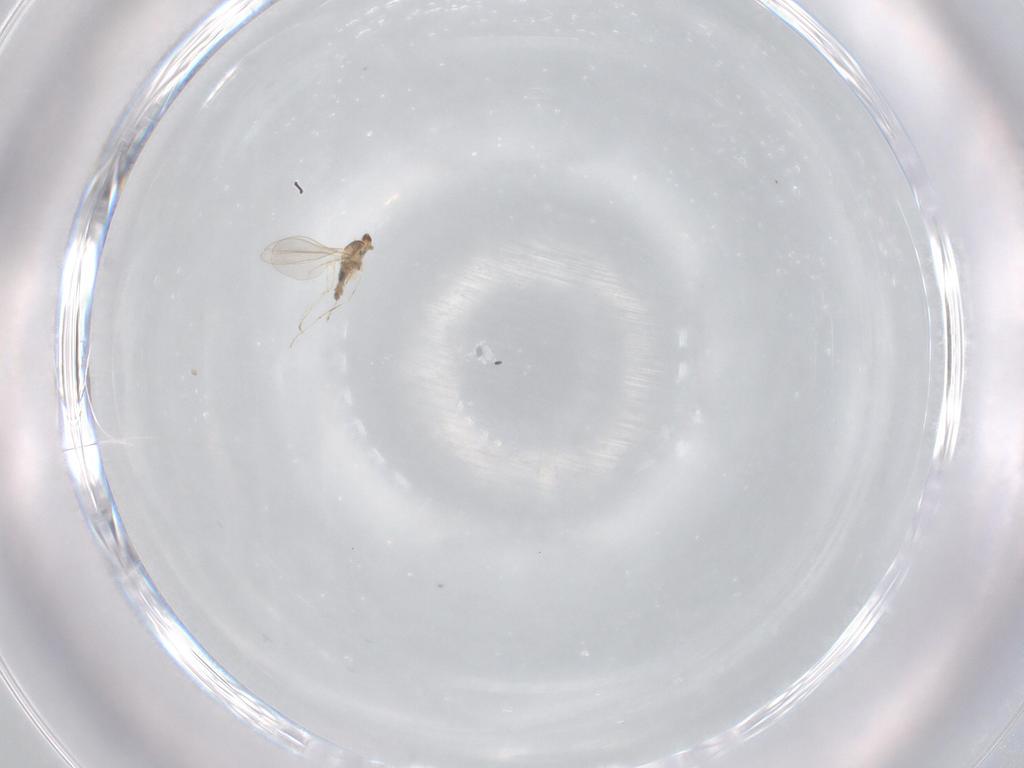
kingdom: Animalia
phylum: Arthropoda
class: Insecta
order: Diptera
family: Cecidomyiidae
